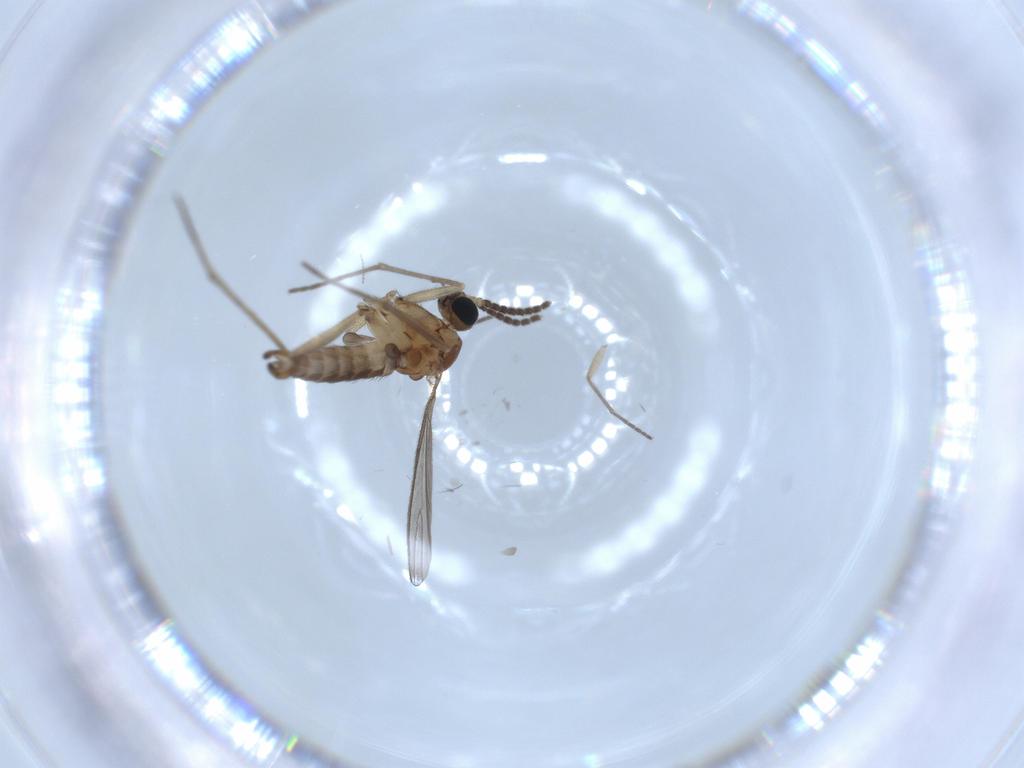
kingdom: Animalia
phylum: Arthropoda
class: Insecta
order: Diptera
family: Sciaridae
